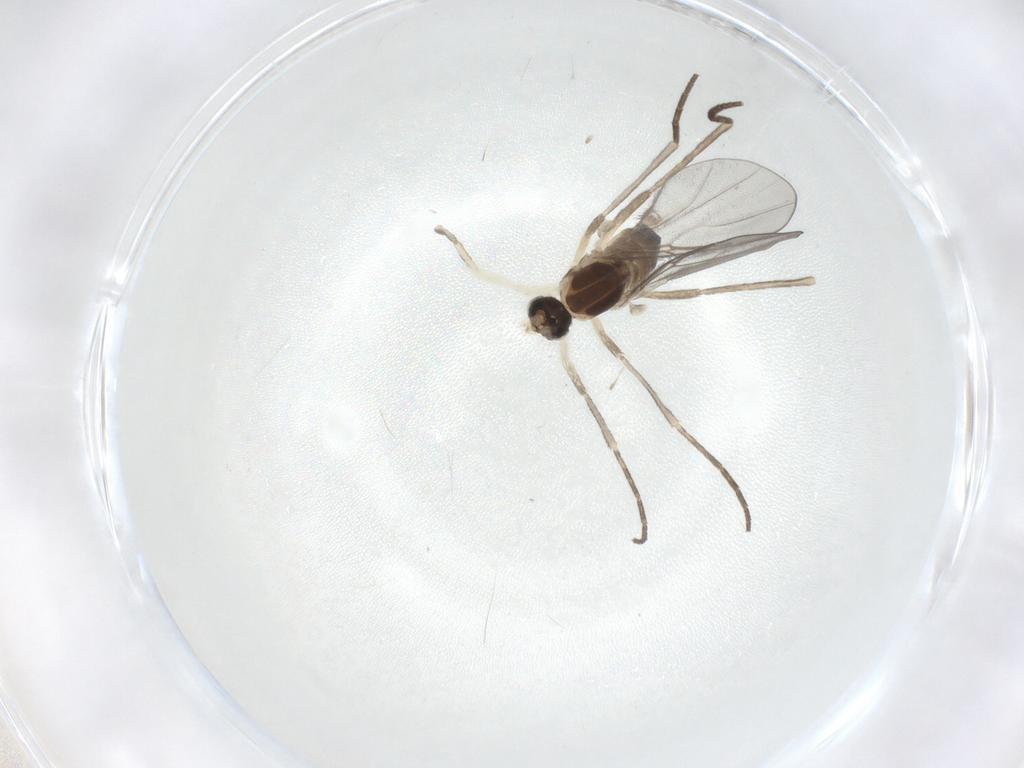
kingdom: Animalia
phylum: Arthropoda
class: Insecta
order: Diptera
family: Cecidomyiidae
